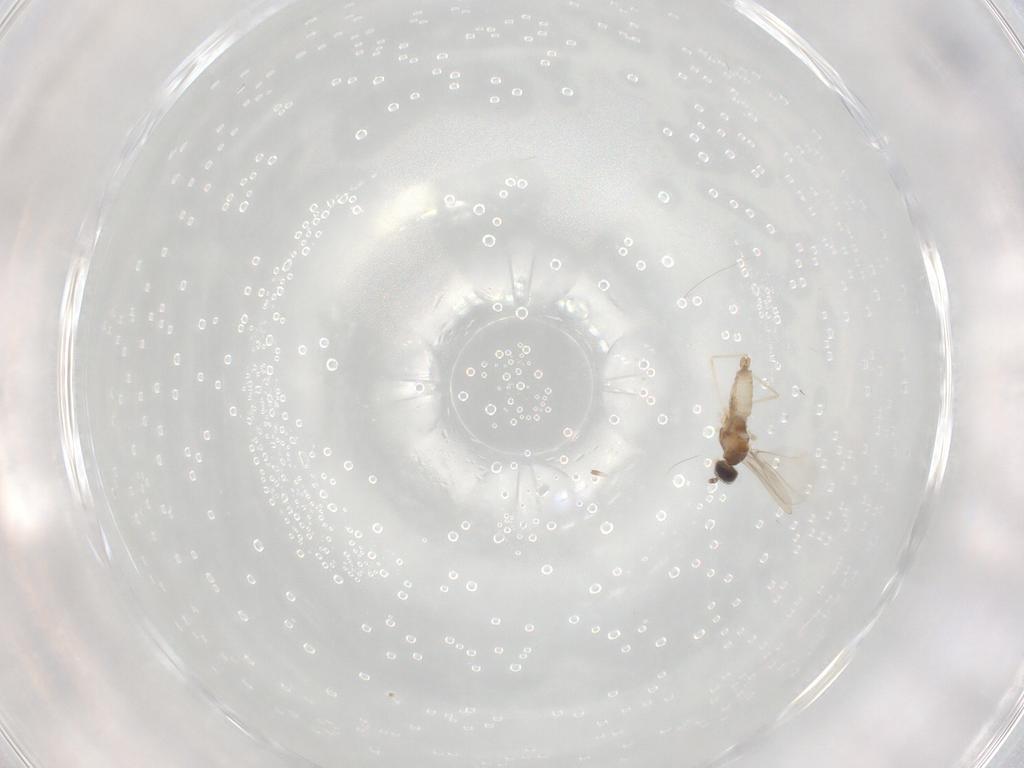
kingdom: Animalia
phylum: Arthropoda
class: Insecta
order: Diptera
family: Cecidomyiidae
